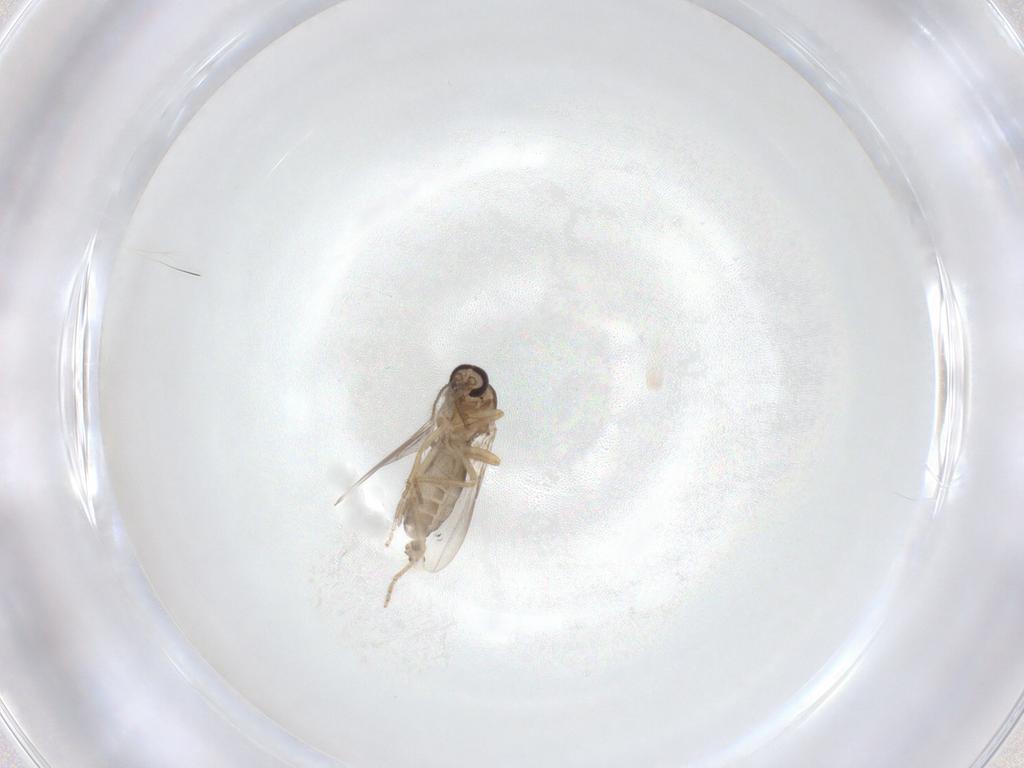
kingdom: Animalia
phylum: Arthropoda
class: Insecta
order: Diptera
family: Ceratopogonidae
